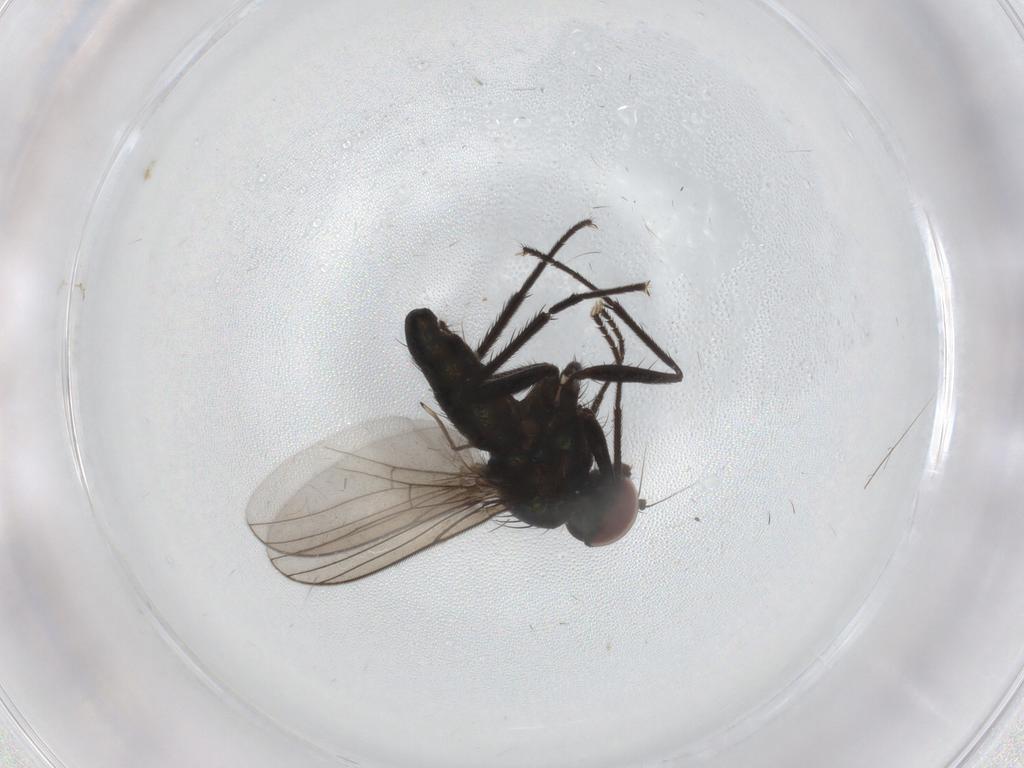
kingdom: Animalia
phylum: Arthropoda
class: Insecta
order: Diptera
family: Dolichopodidae
